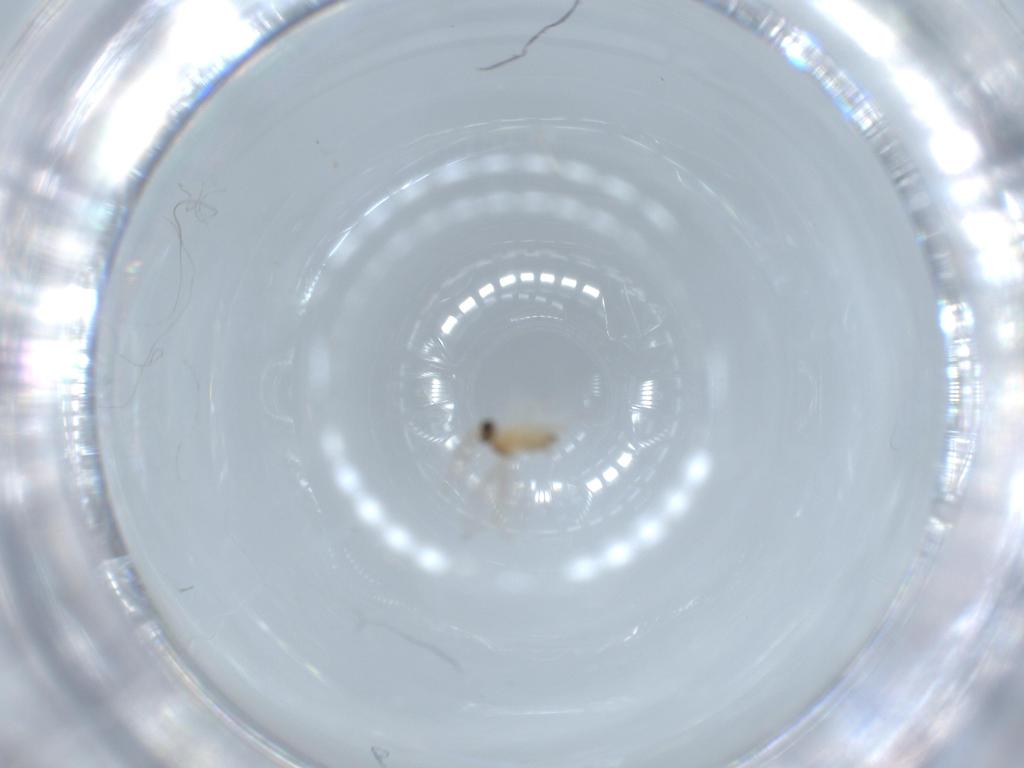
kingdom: Animalia
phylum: Arthropoda
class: Insecta
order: Diptera
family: Cecidomyiidae
